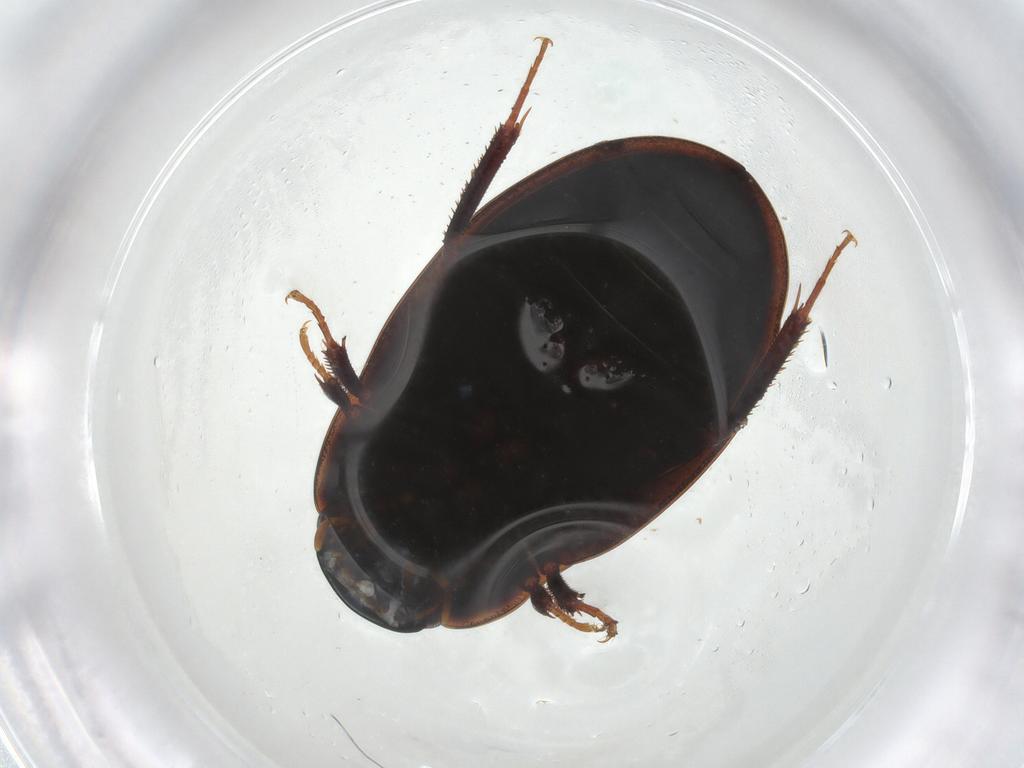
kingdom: Animalia
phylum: Arthropoda
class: Insecta
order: Coleoptera
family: Hydrophilidae
